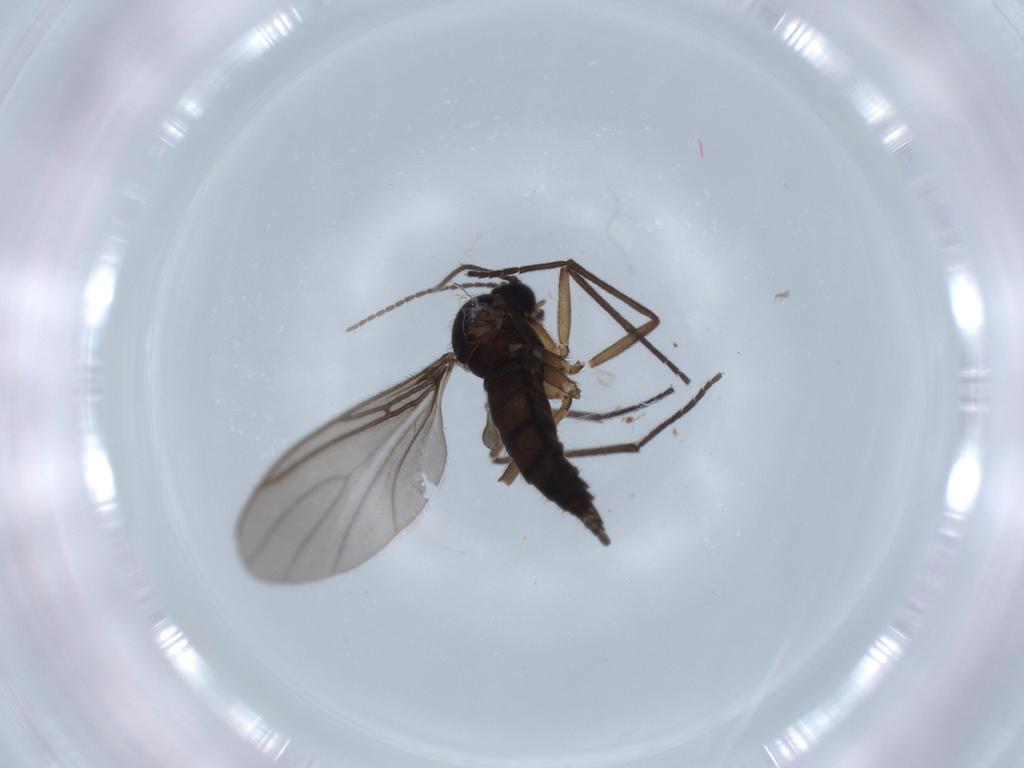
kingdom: Animalia
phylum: Arthropoda
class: Insecta
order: Diptera
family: Sciaridae
